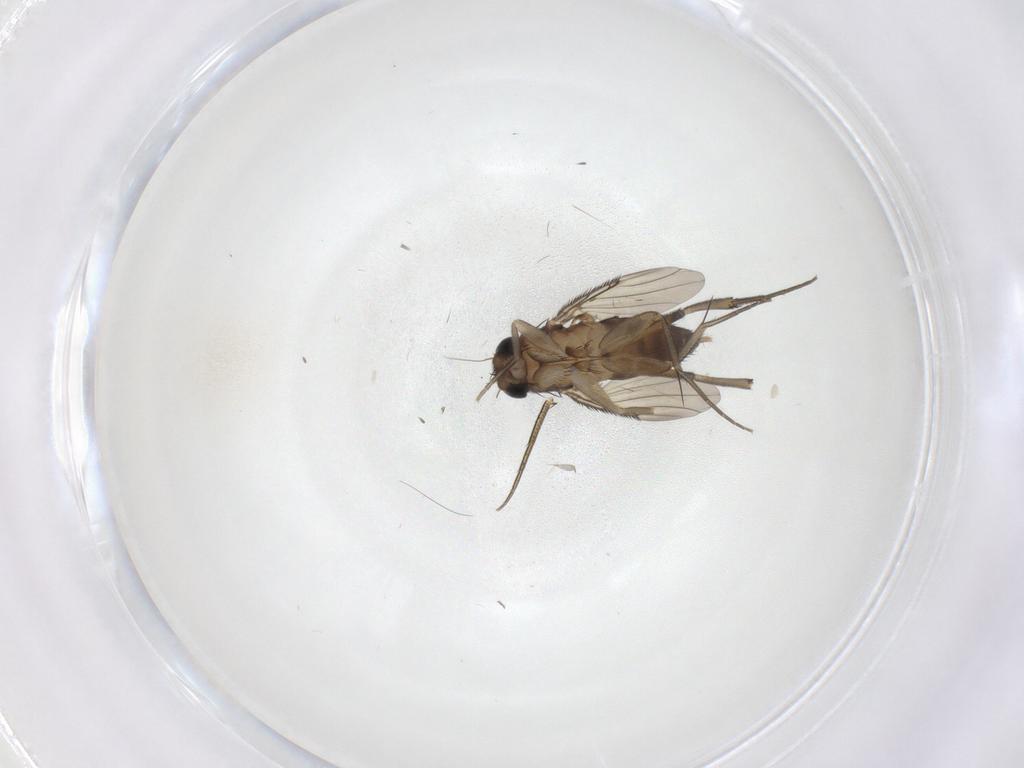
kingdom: Animalia
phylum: Arthropoda
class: Insecta
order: Diptera
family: Phoridae
